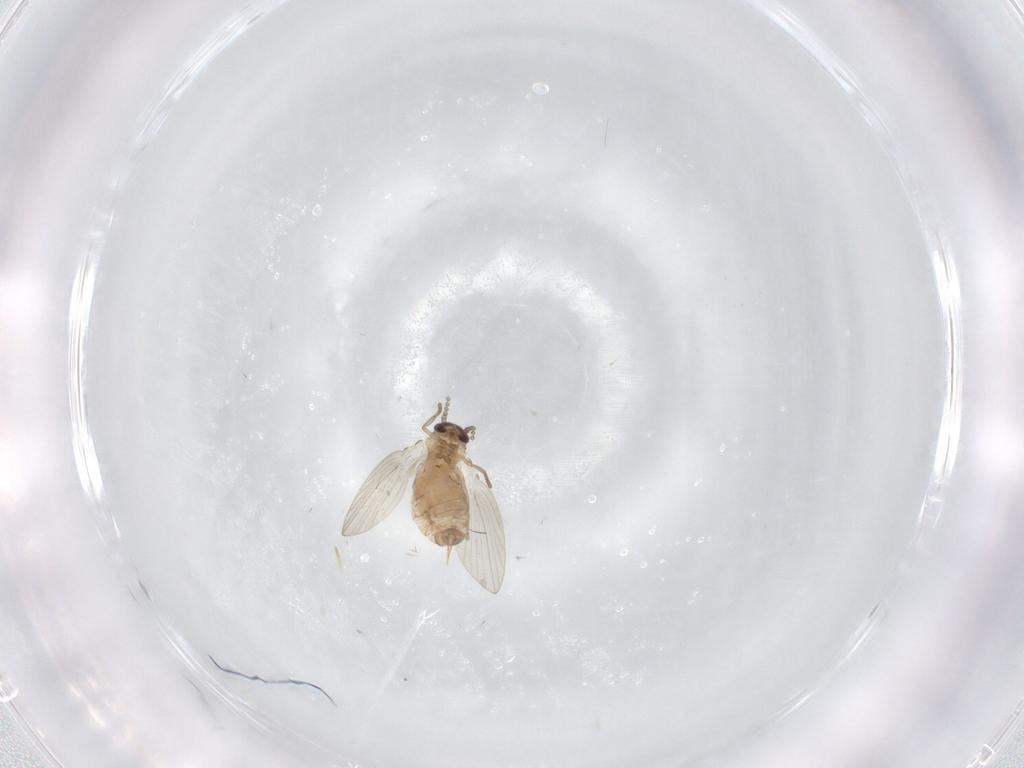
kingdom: Animalia
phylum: Arthropoda
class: Insecta
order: Diptera
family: Psychodidae
